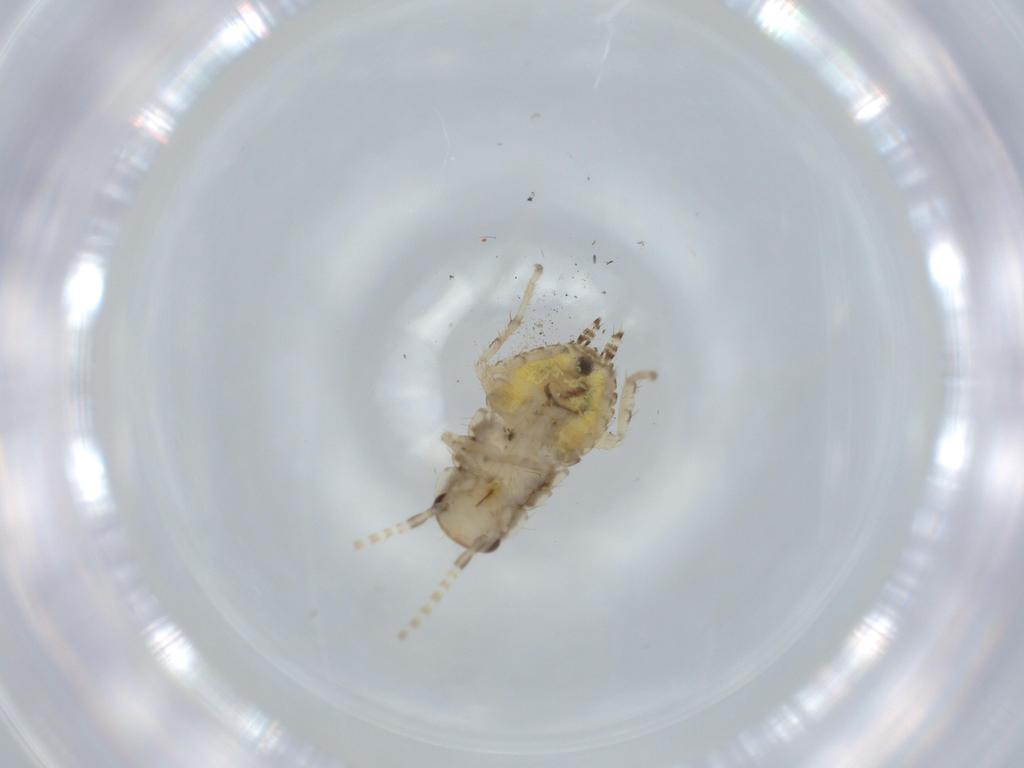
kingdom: Animalia
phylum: Arthropoda
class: Insecta
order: Blattodea
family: Ectobiidae
